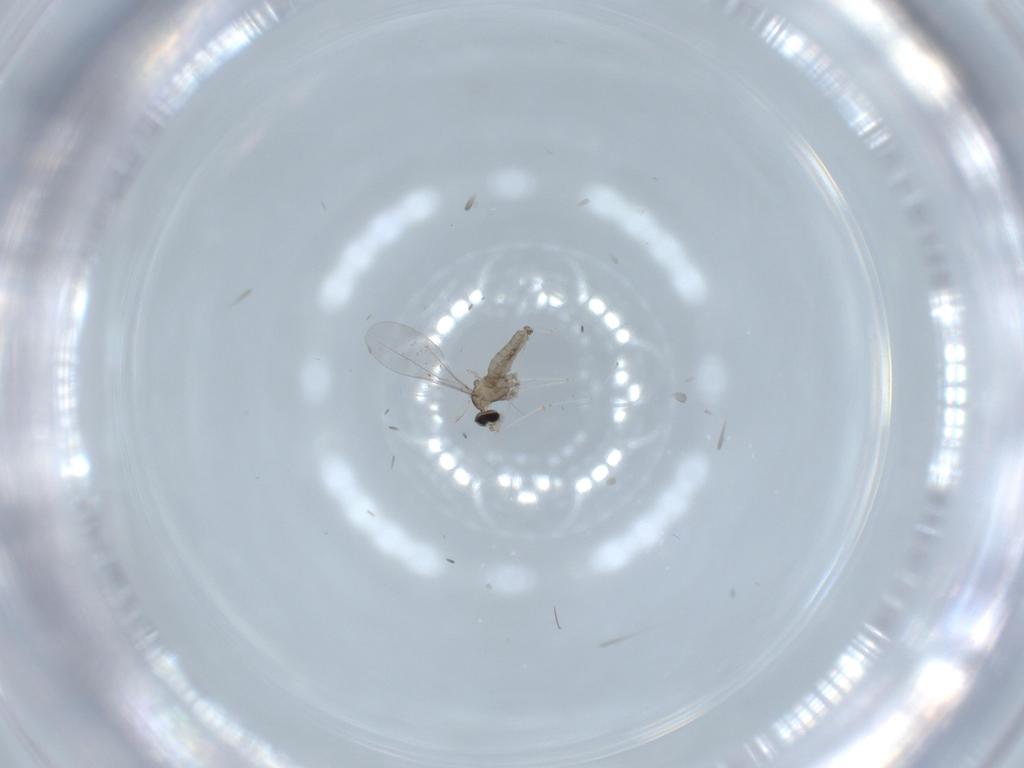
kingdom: Animalia
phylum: Arthropoda
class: Insecta
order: Diptera
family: Cecidomyiidae
